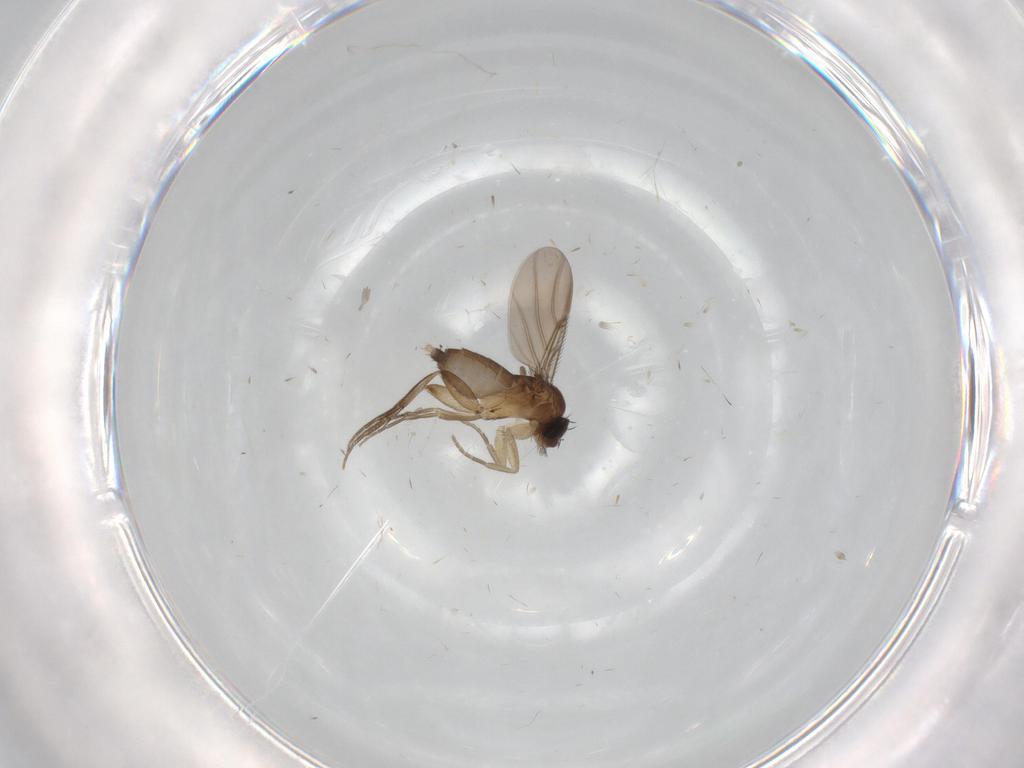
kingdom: Animalia
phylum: Arthropoda
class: Insecta
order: Diptera
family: Phoridae
